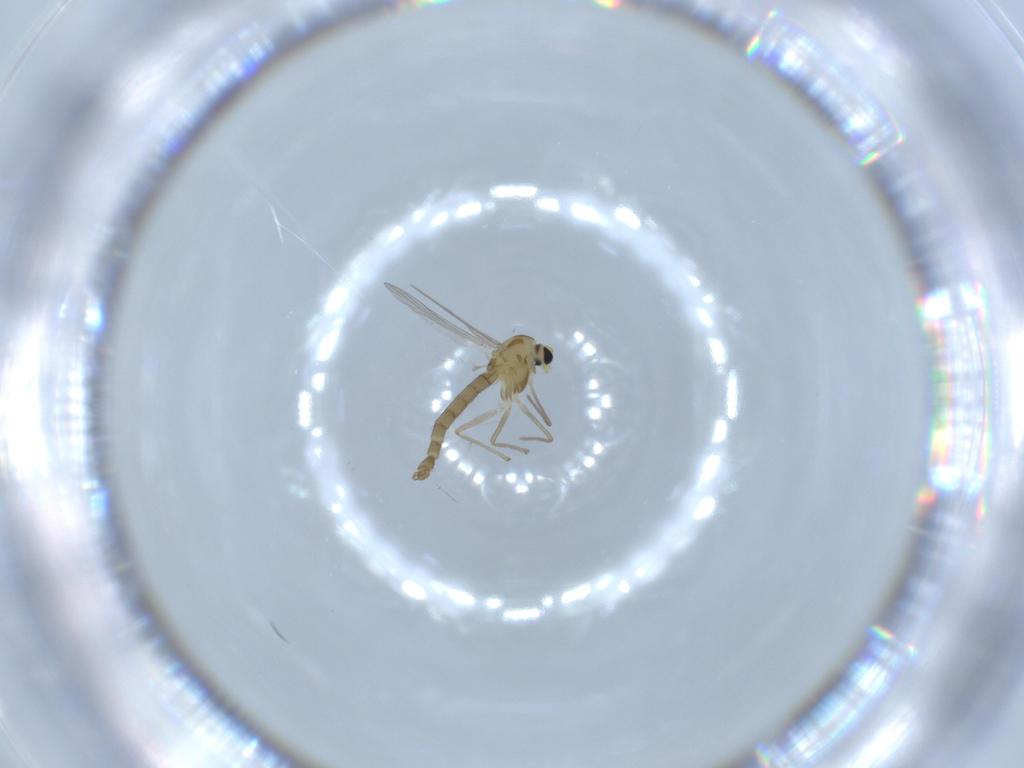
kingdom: Animalia
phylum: Arthropoda
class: Insecta
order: Diptera
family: Chironomidae
